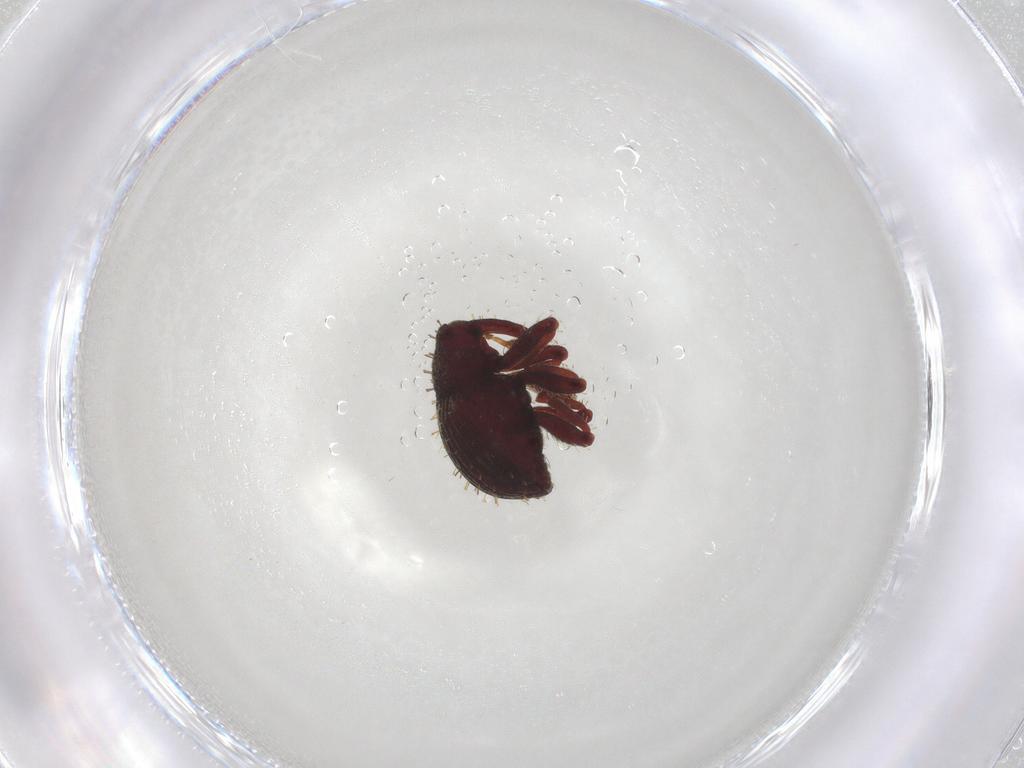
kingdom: Animalia
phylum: Arthropoda
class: Insecta
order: Coleoptera
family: Curculionidae
